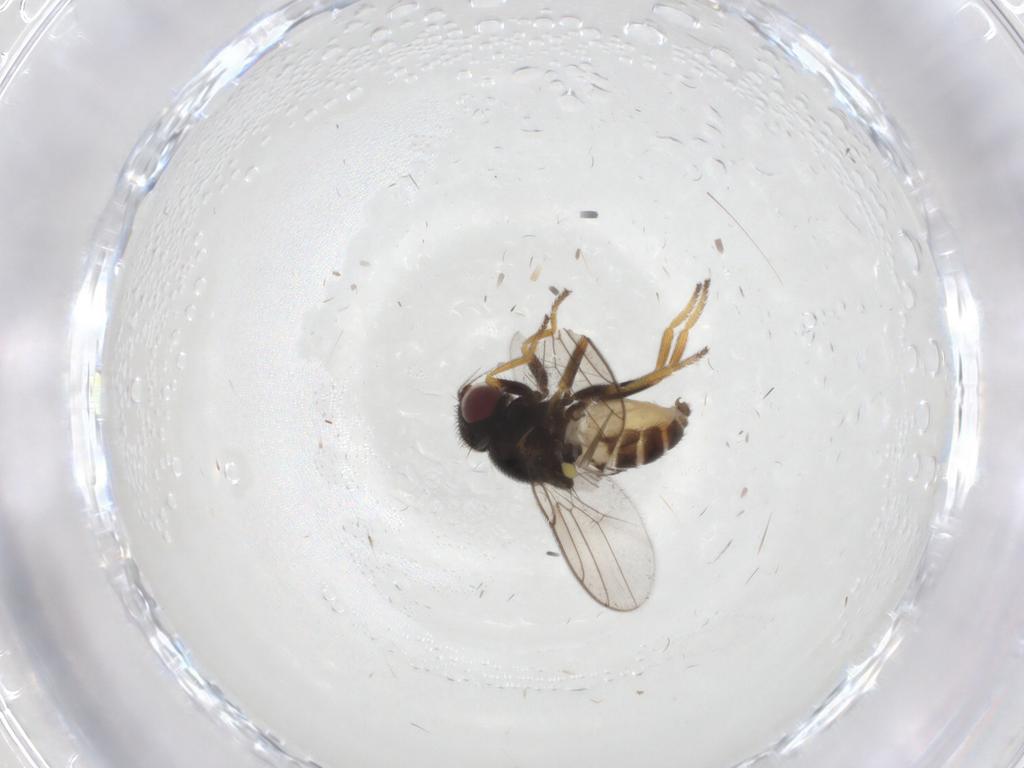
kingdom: Animalia
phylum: Arthropoda
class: Insecta
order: Diptera
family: Chloropidae
